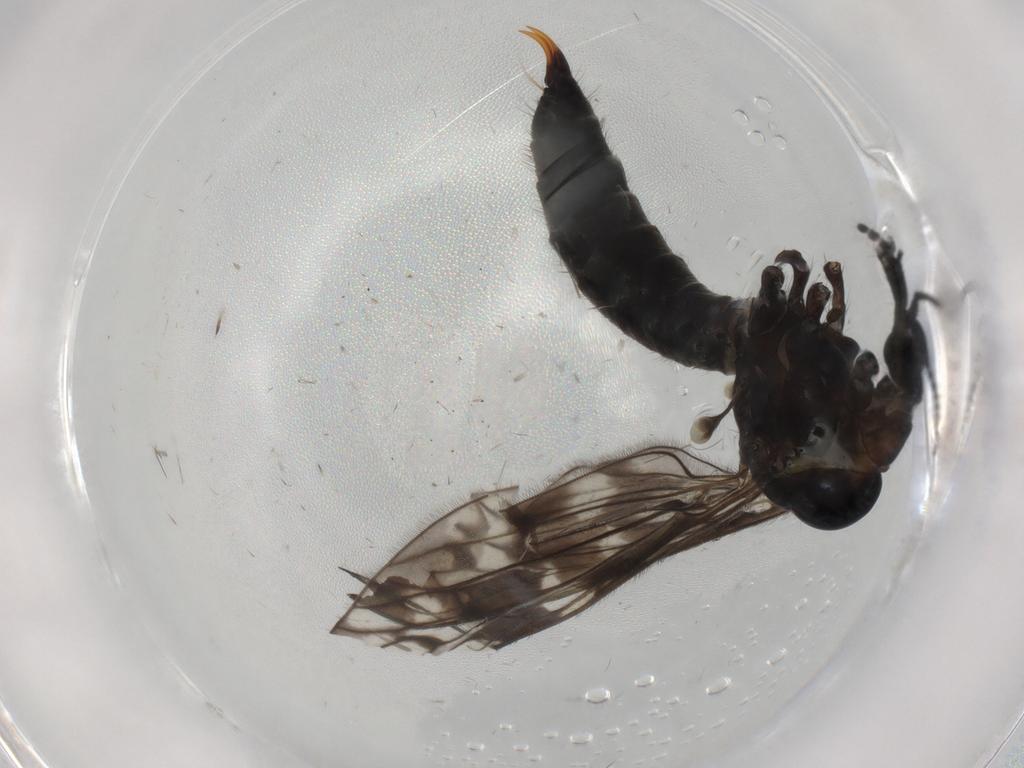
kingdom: Animalia
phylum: Arthropoda
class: Insecta
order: Diptera
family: Limoniidae
